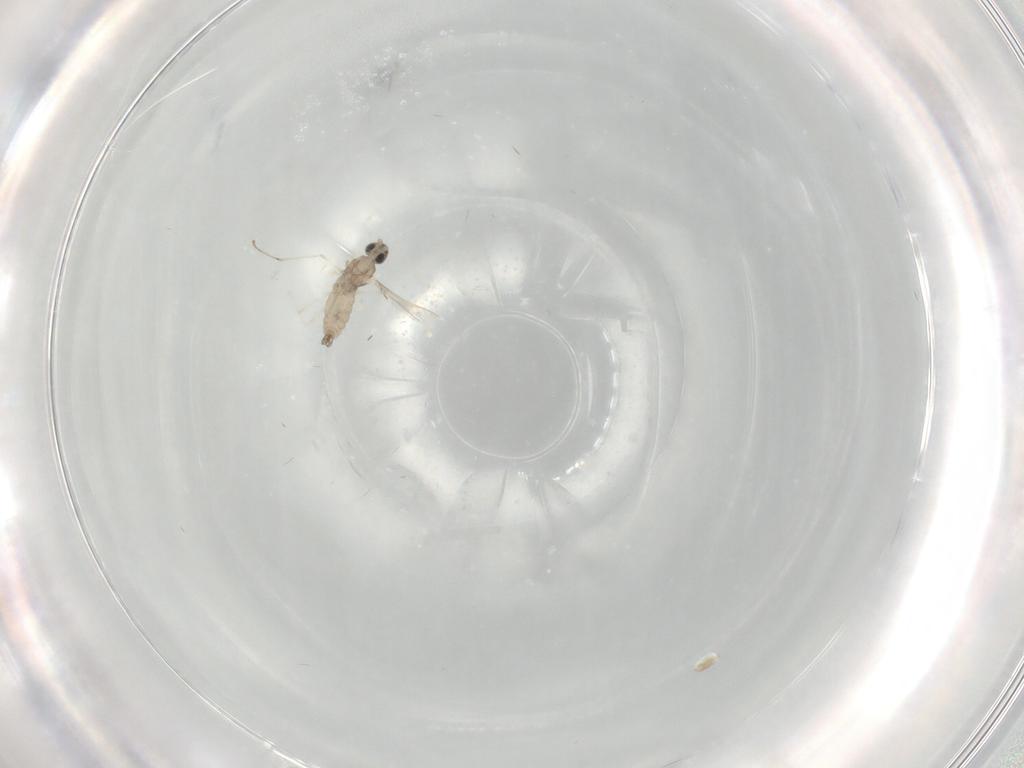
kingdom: Animalia
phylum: Arthropoda
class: Insecta
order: Diptera
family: Cecidomyiidae
